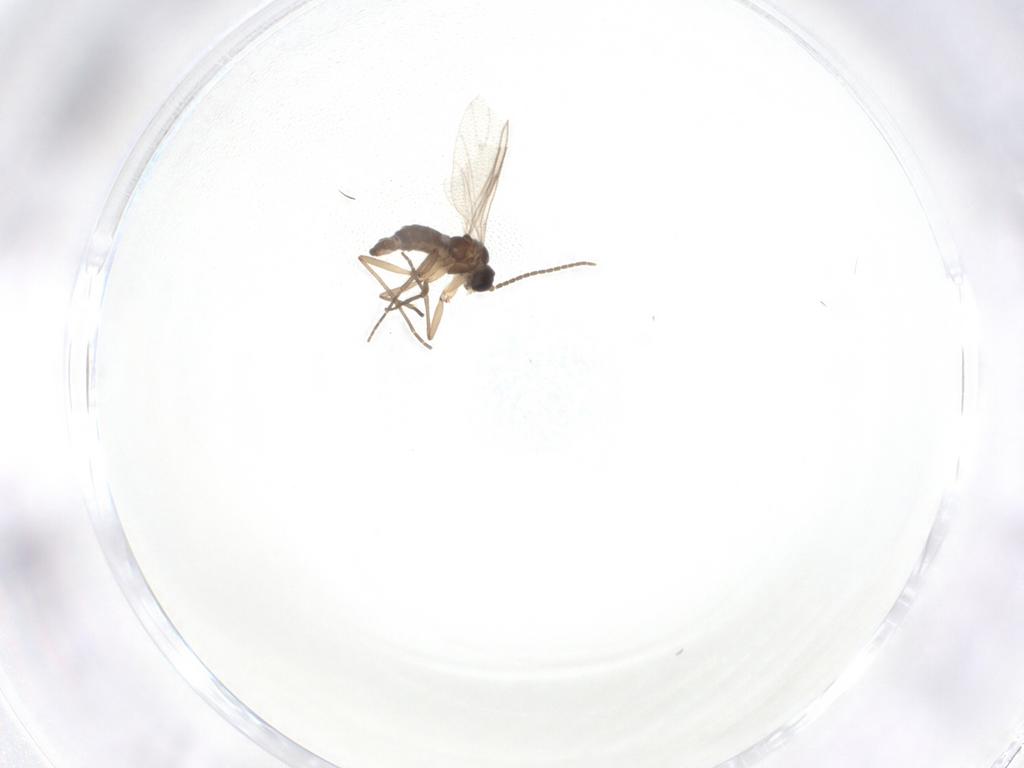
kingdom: Animalia
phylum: Arthropoda
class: Insecta
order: Diptera
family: Sciaridae
